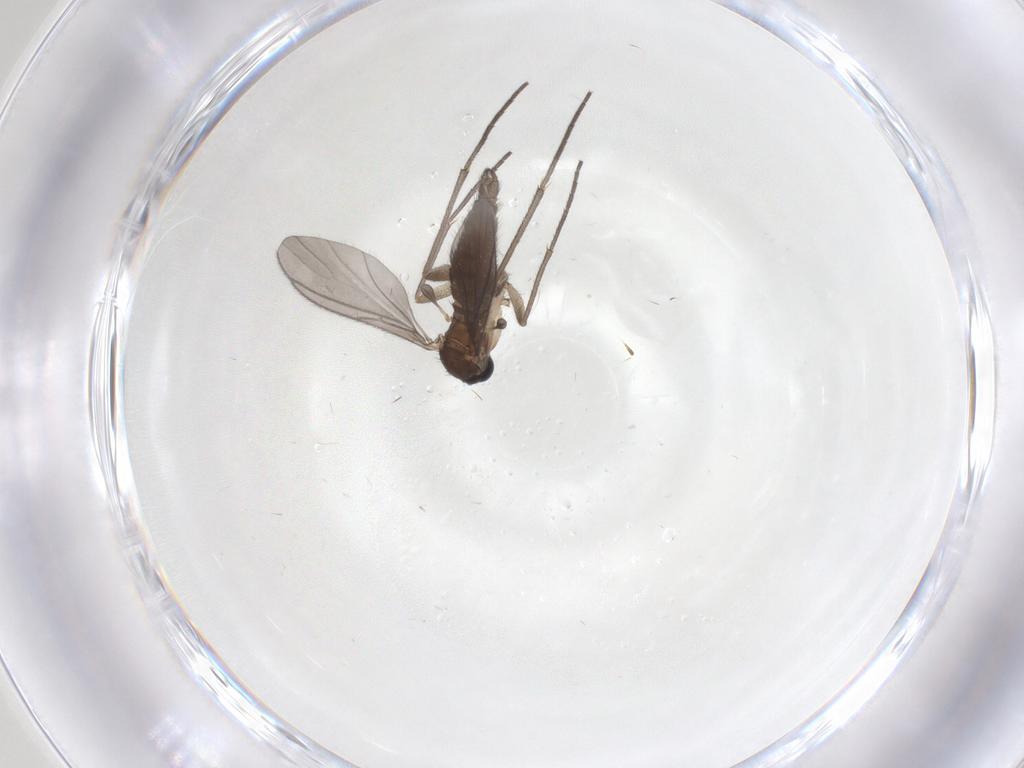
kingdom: Animalia
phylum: Arthropoda
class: Insecta
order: Diptera
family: Sciaridae
